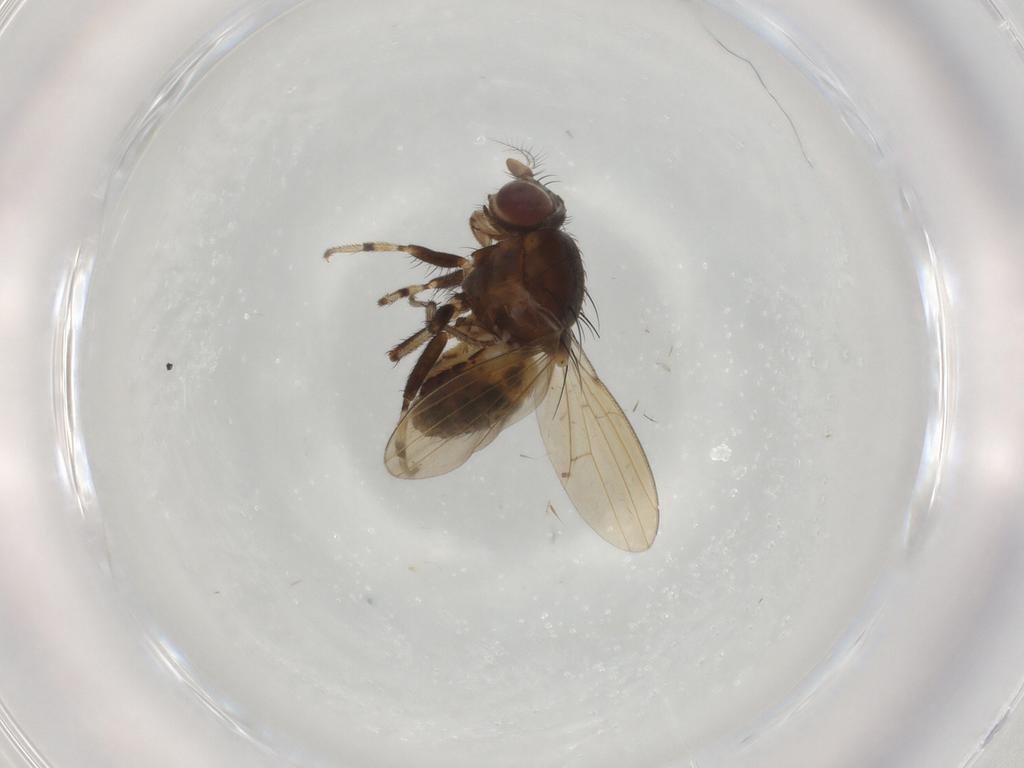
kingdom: Animalia
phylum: Arthropoda
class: Insecta
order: Diptera
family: Ceratopogonidae
